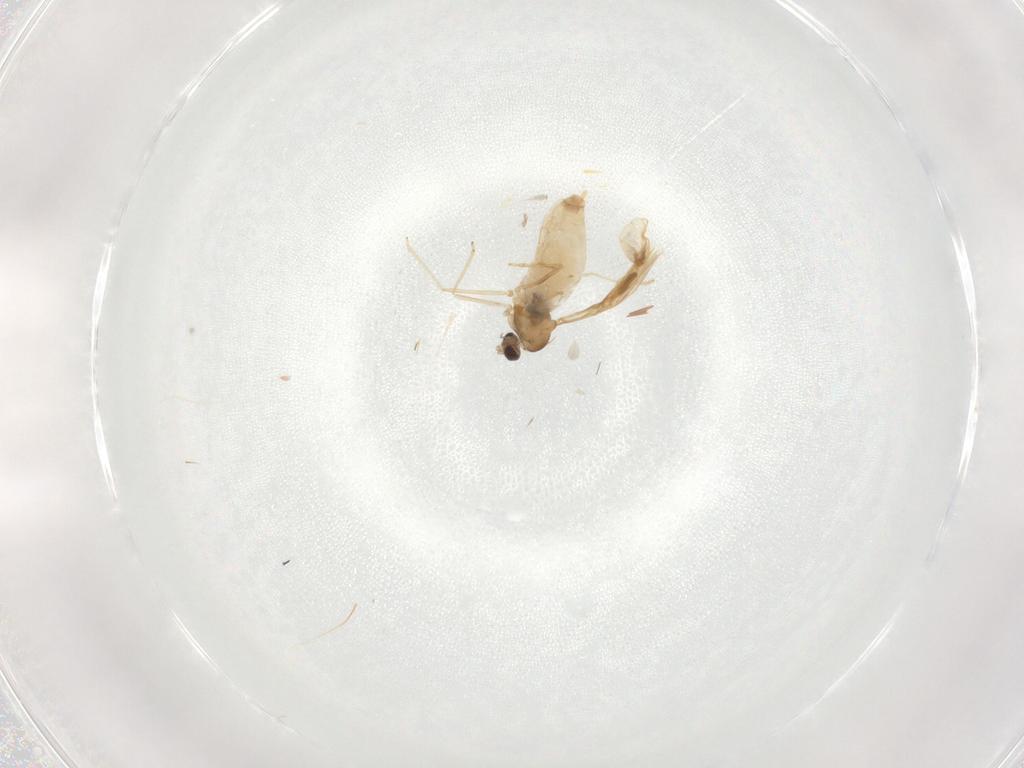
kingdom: Animalia
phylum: Arthropoda
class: Insecta
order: Diptera
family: Cecidomyiidae
